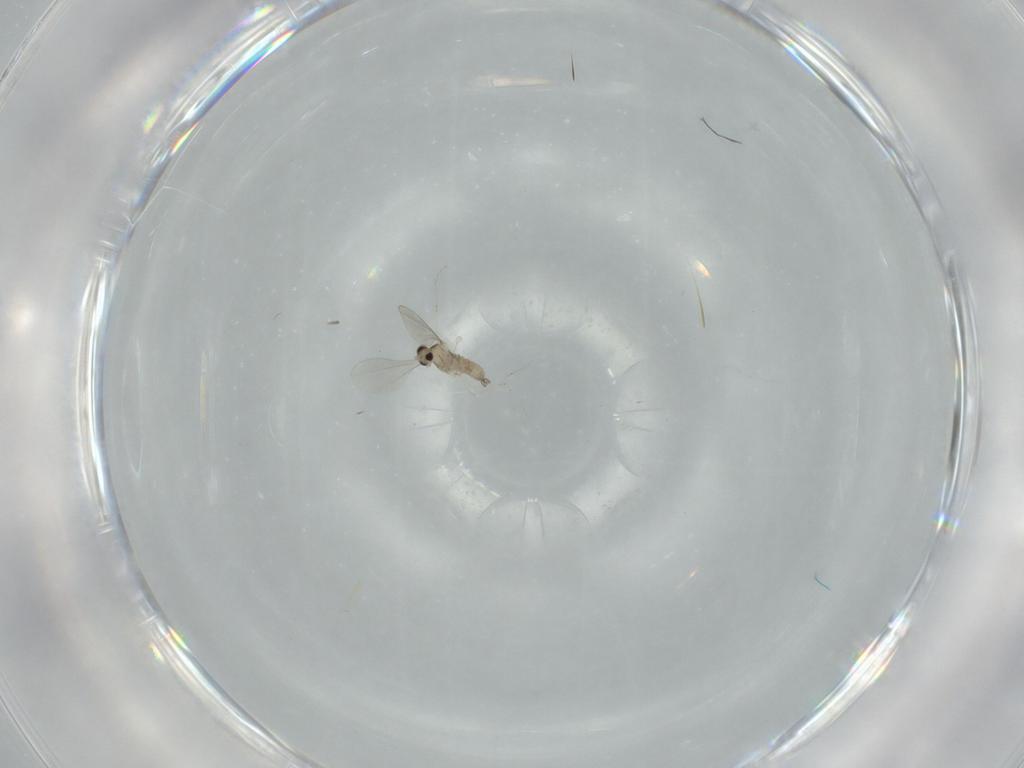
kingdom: Animalia
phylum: Arthropoda
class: Insecta
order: Diptera
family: Cecidomyiidae
